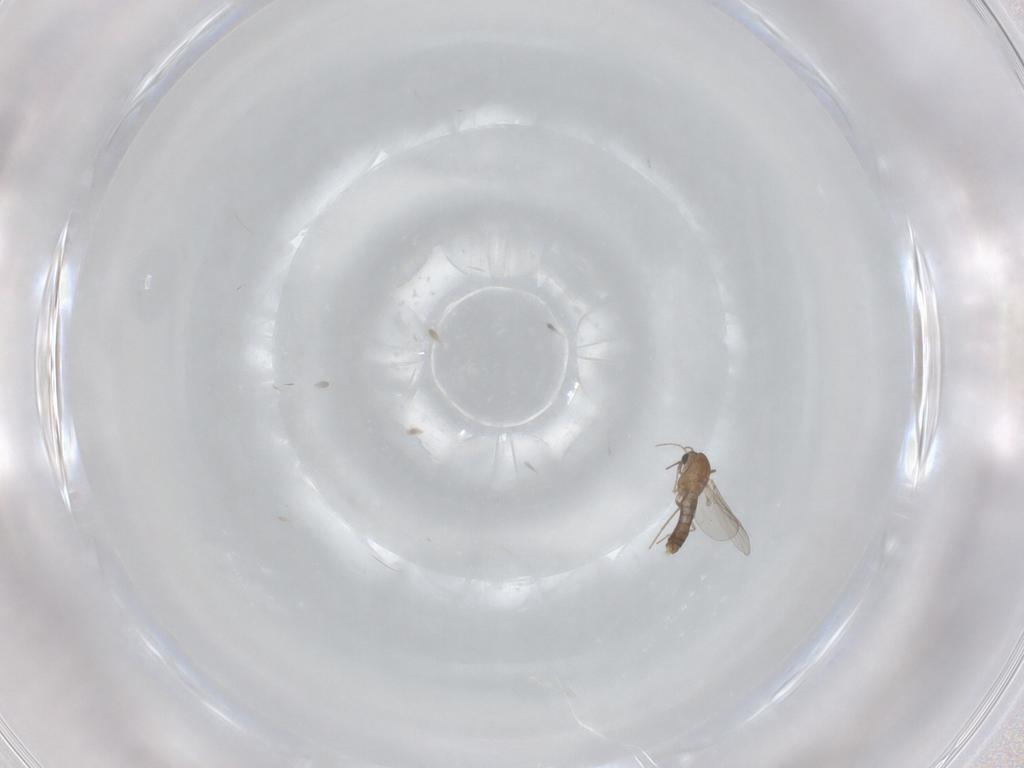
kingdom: Animalia
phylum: Arthropoda
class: Insecta
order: Diptera
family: Chironomidae
